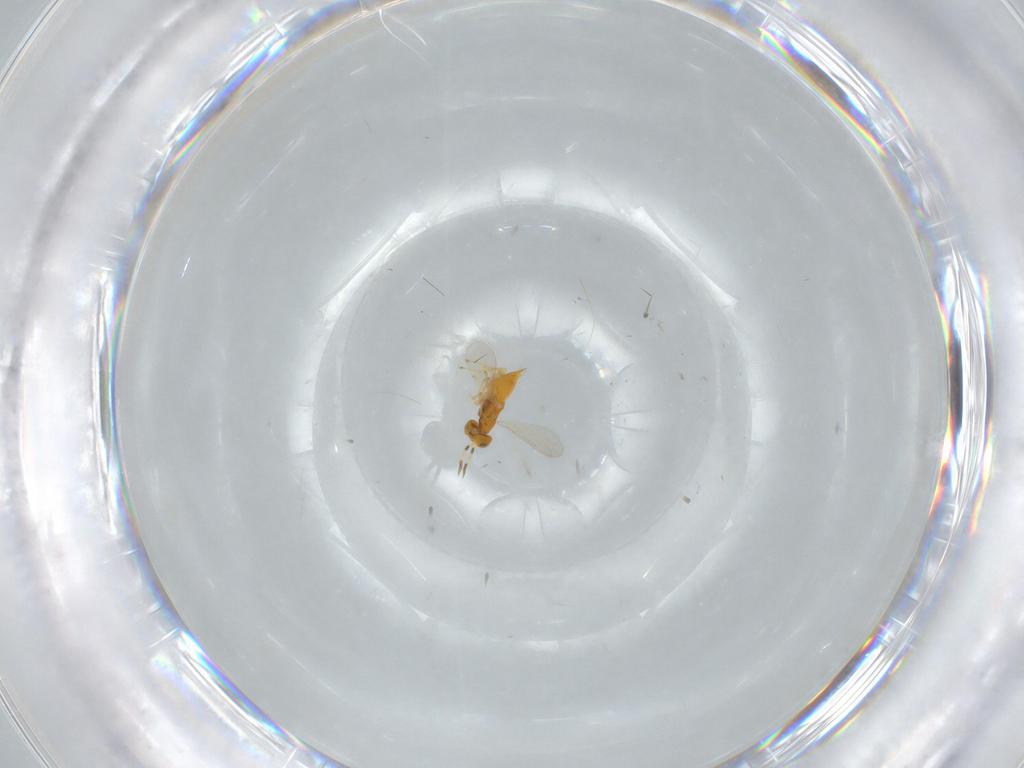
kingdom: Animalia
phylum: Arthropoda
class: Insecta
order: Hymenoptera
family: Aphelinidae
